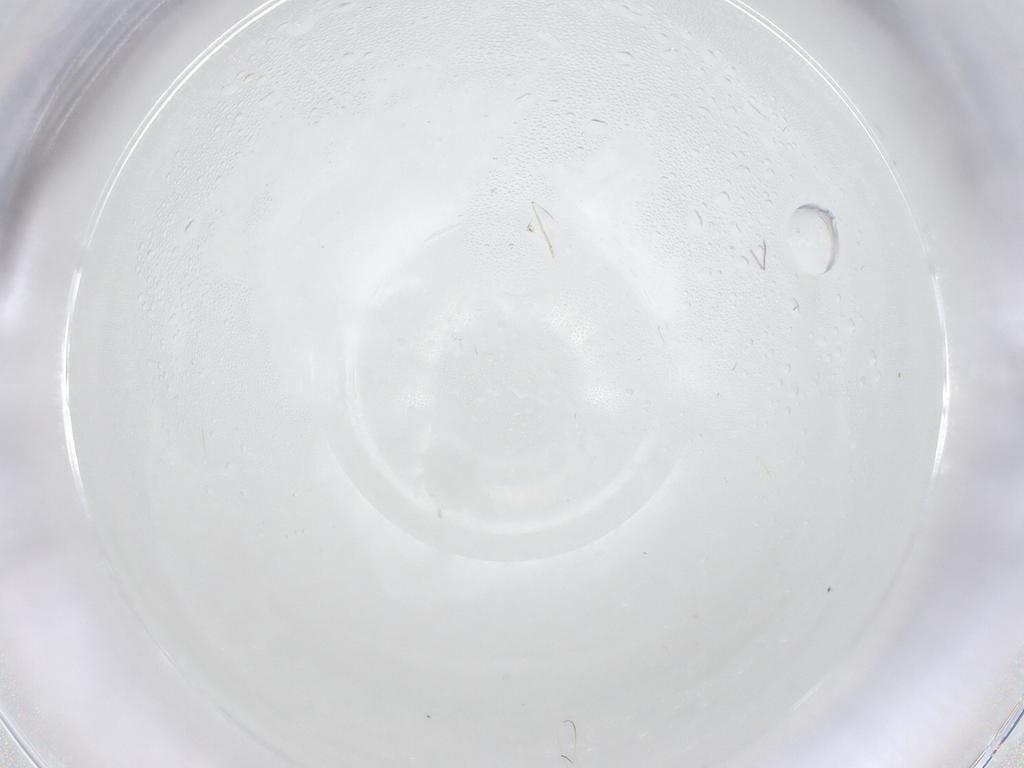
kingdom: Animalia
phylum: Arthropoda
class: Insecta
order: Diptera
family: Chironomidae
